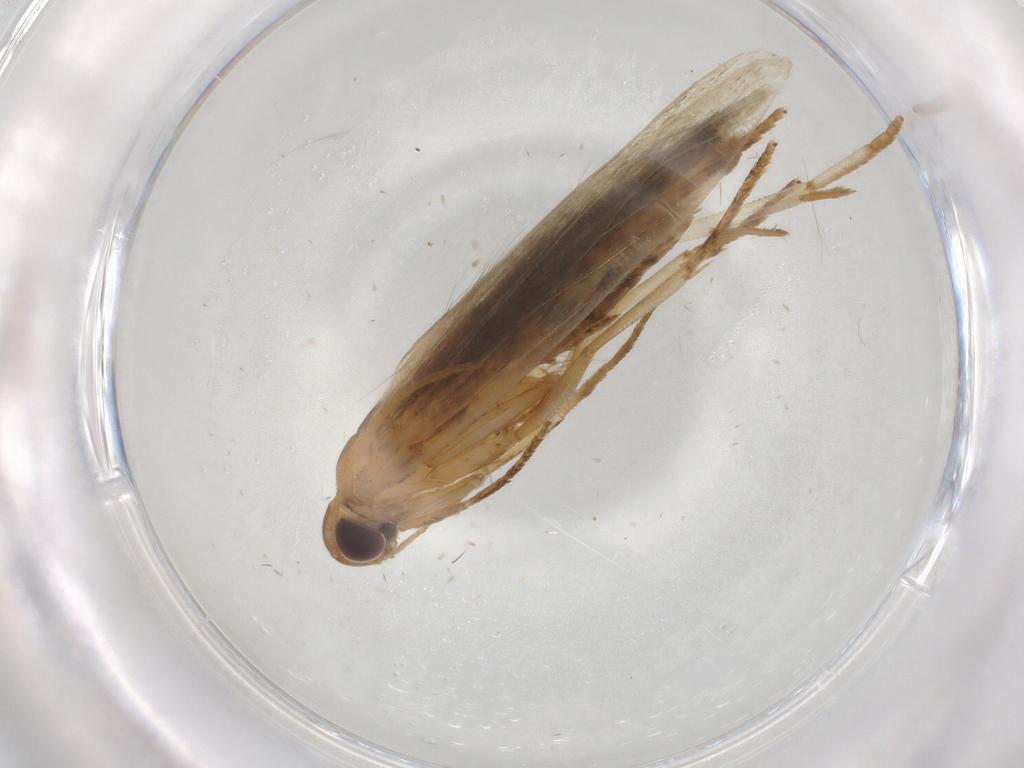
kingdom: Animalia
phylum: Arthropoda
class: Insecta
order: Lepidoptera
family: Gelechiidae
